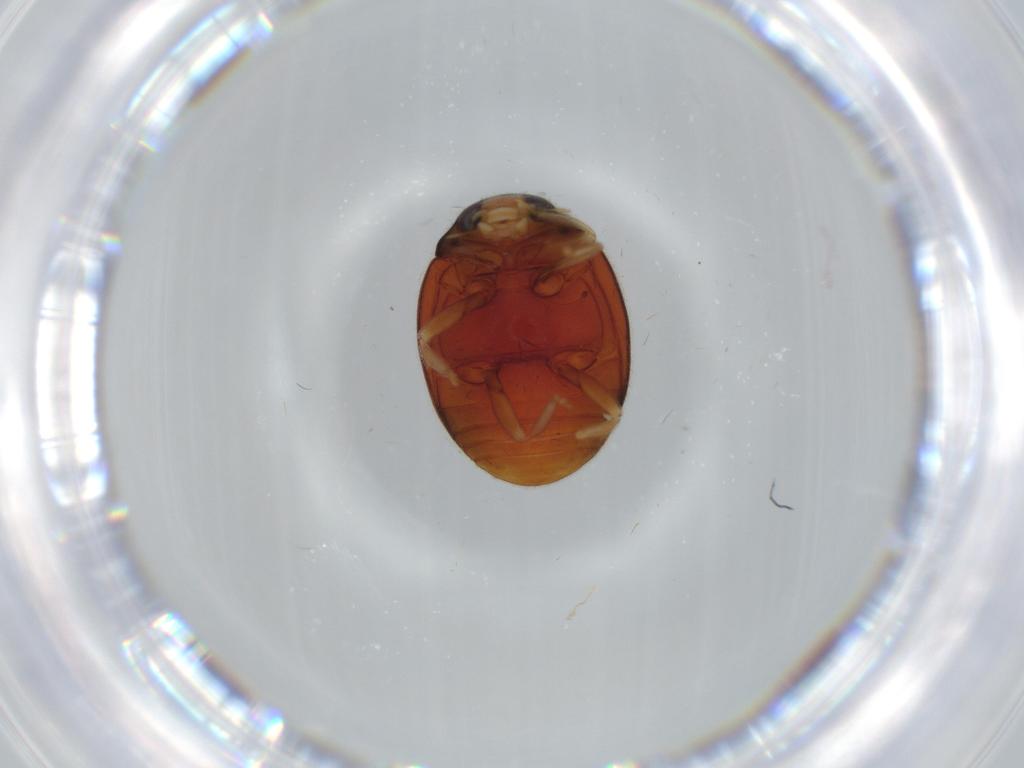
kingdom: Animalia
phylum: Arthropoda
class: Insecta
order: Coleoptera
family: Coccinellidae
